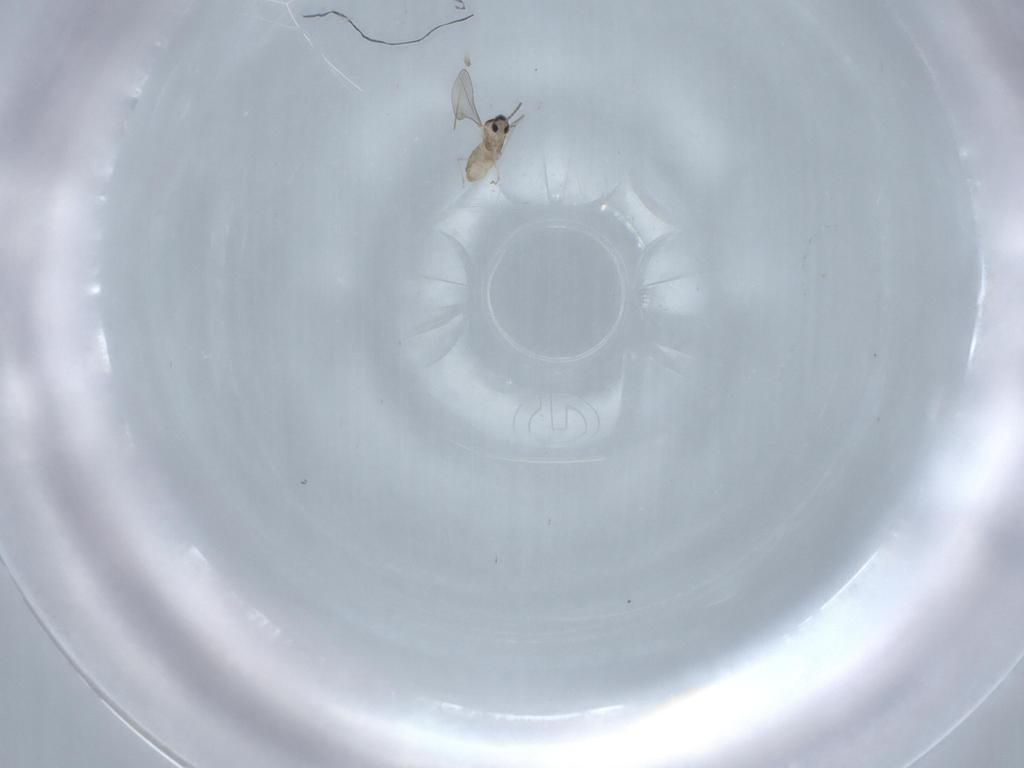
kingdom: Animalia
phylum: Arthropoda
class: Insecta
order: Diptera
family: Cecidomyiidae
